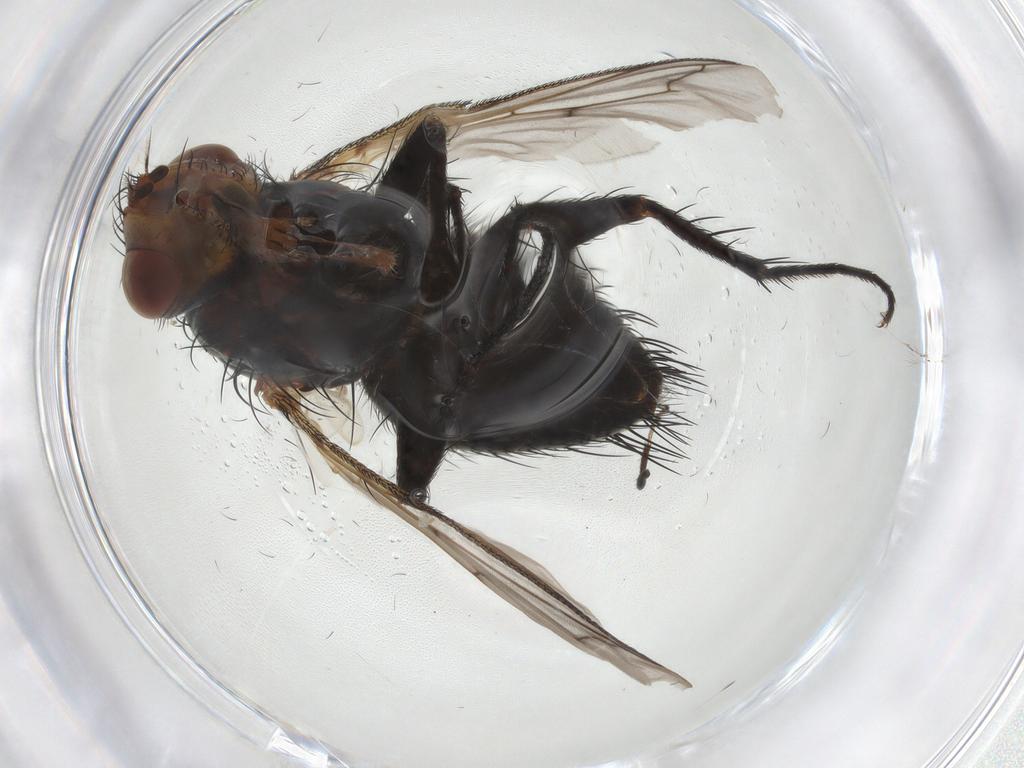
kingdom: Animalia
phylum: Arthropoda
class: Insecta
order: Diptera
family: Tachinidae
